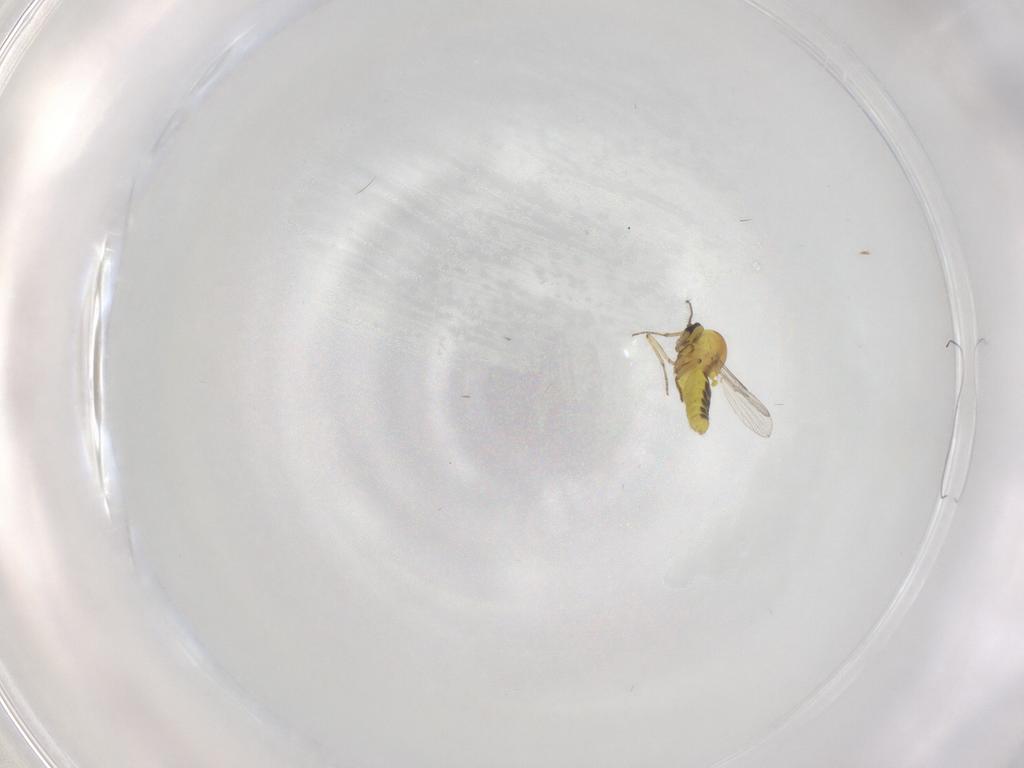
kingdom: Animalia
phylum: Arthropoda
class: Insecta
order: Diptera
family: Ceratopogonidae
